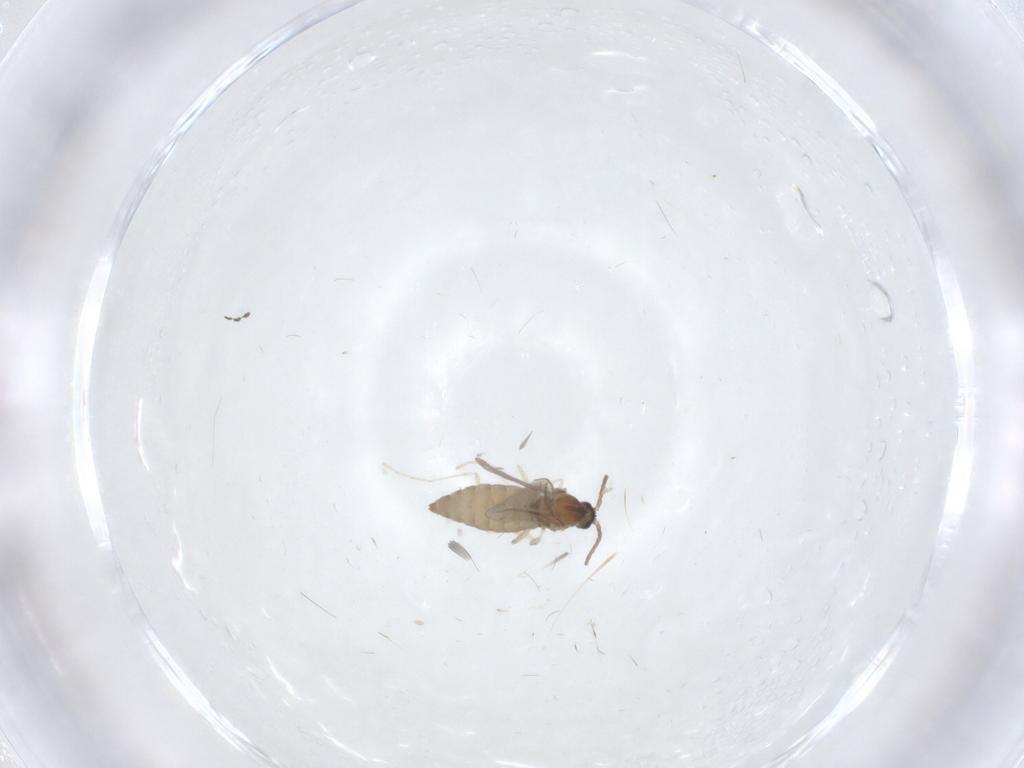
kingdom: Animalia
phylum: Arthropoda
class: Insecta
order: Diptera
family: Cecidomyiidae
